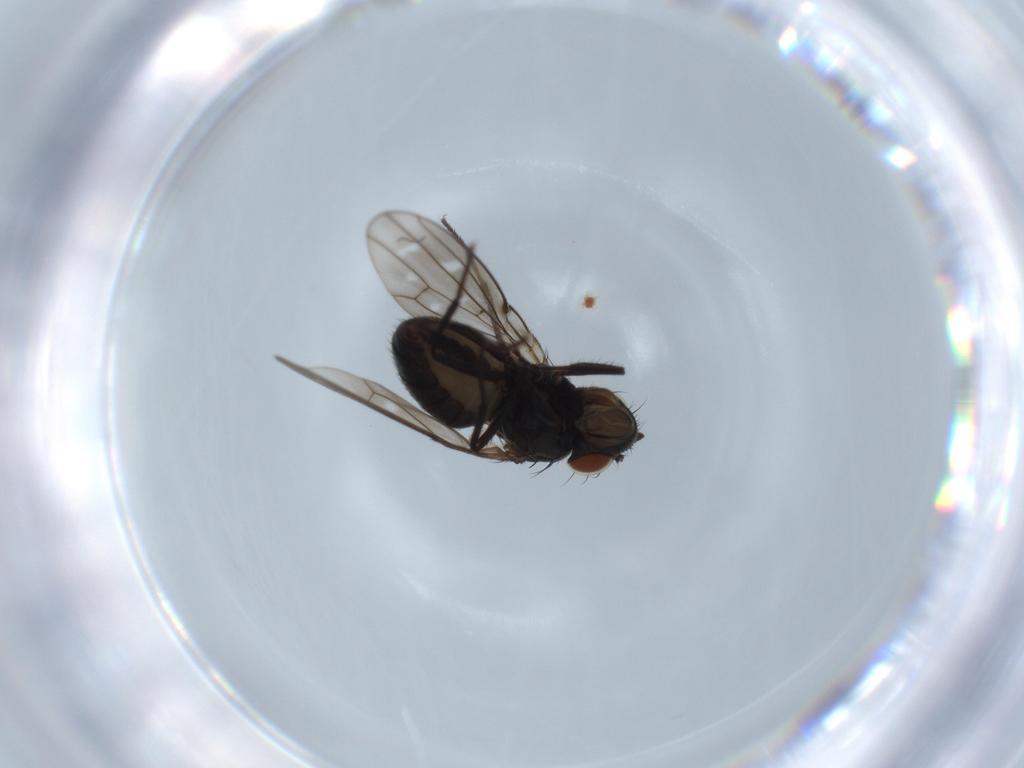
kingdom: Animalia
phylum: Arthropoda
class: Insecta
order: Diptera
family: Ephydridae
